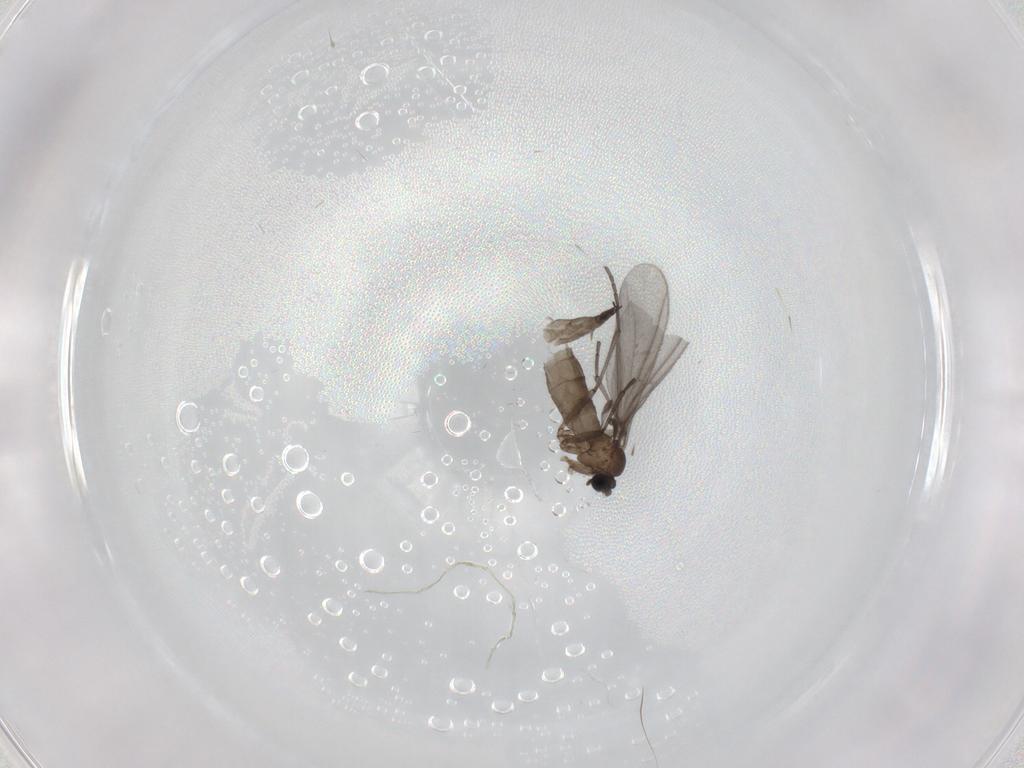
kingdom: Animalia
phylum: Arthropoda
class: Insecta
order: Diptera
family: Sciaridae
